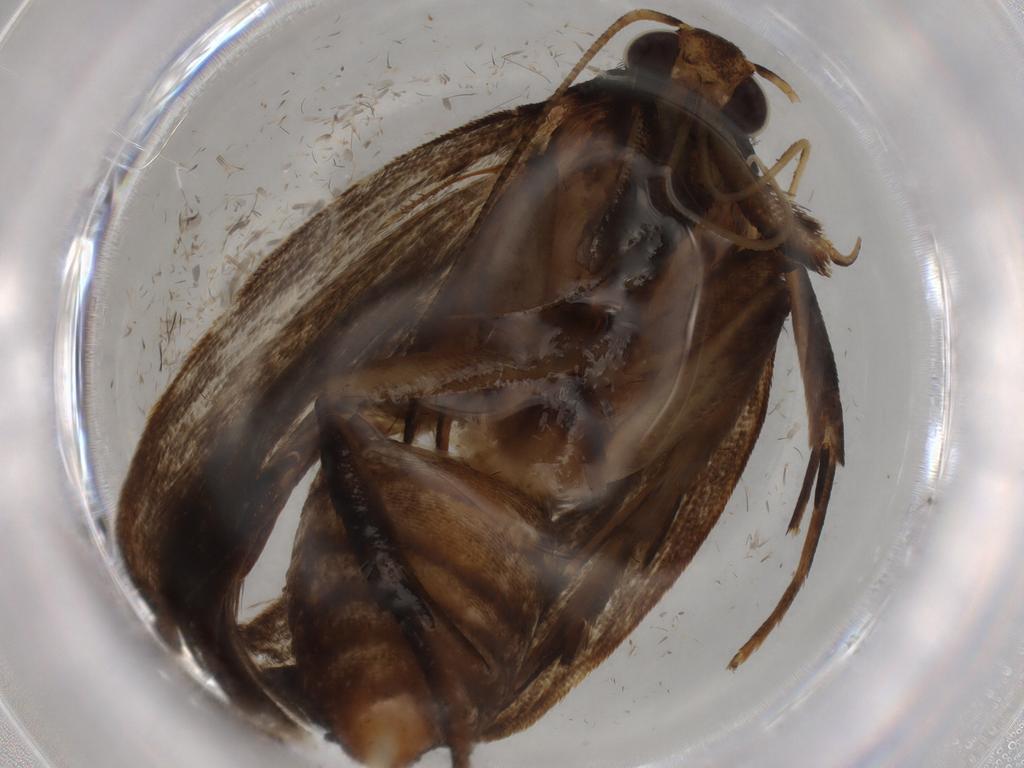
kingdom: Animalia
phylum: Arthropoda
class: Insecta
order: Lepidoptera
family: Gelechiidae
